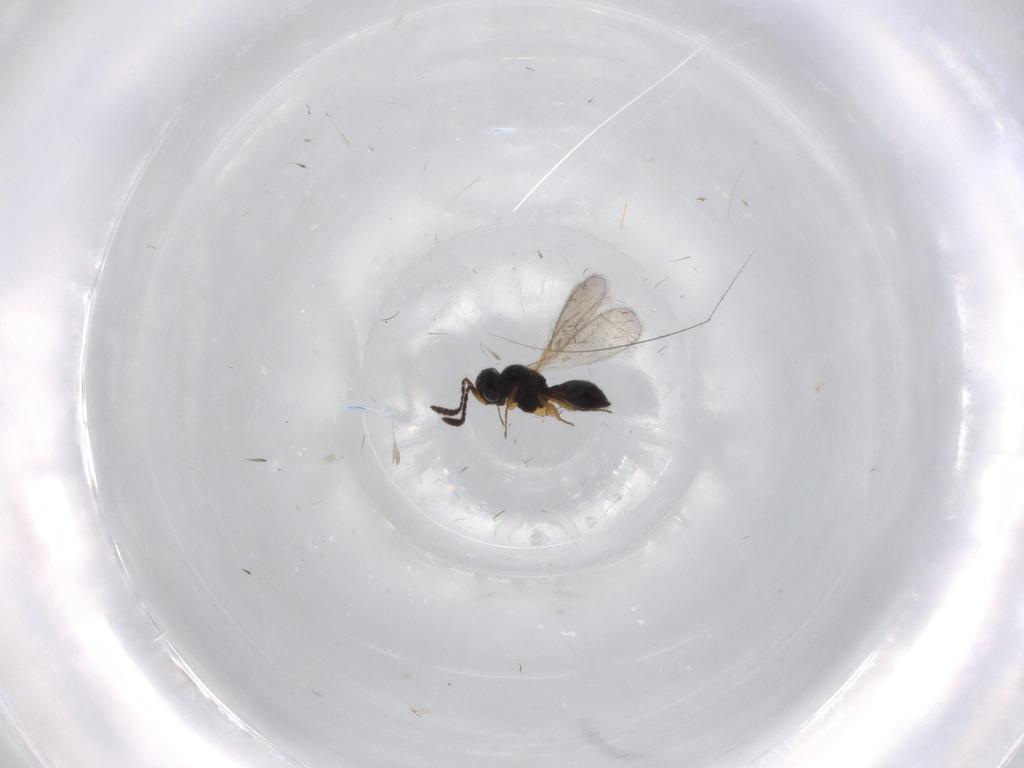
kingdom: Animalia
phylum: Arthropoda
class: Insecta
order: Hymenoptera
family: Scelionidae
